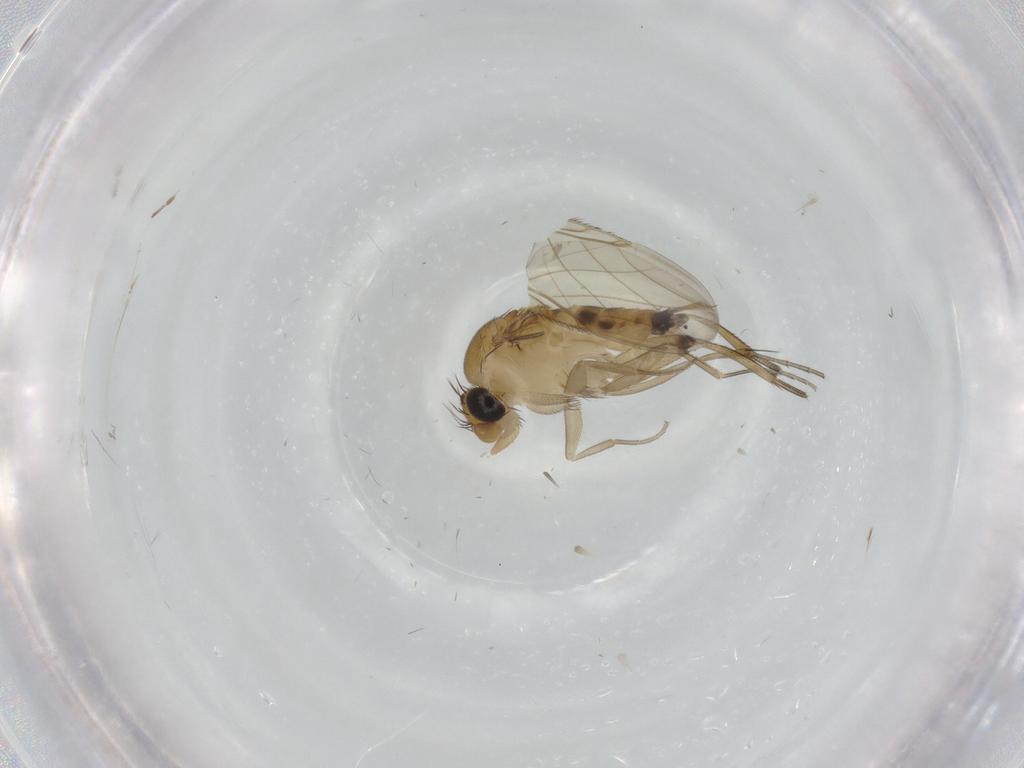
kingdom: Animalia
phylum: Arthropoda
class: Insecta
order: Diptera
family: Phoridae
